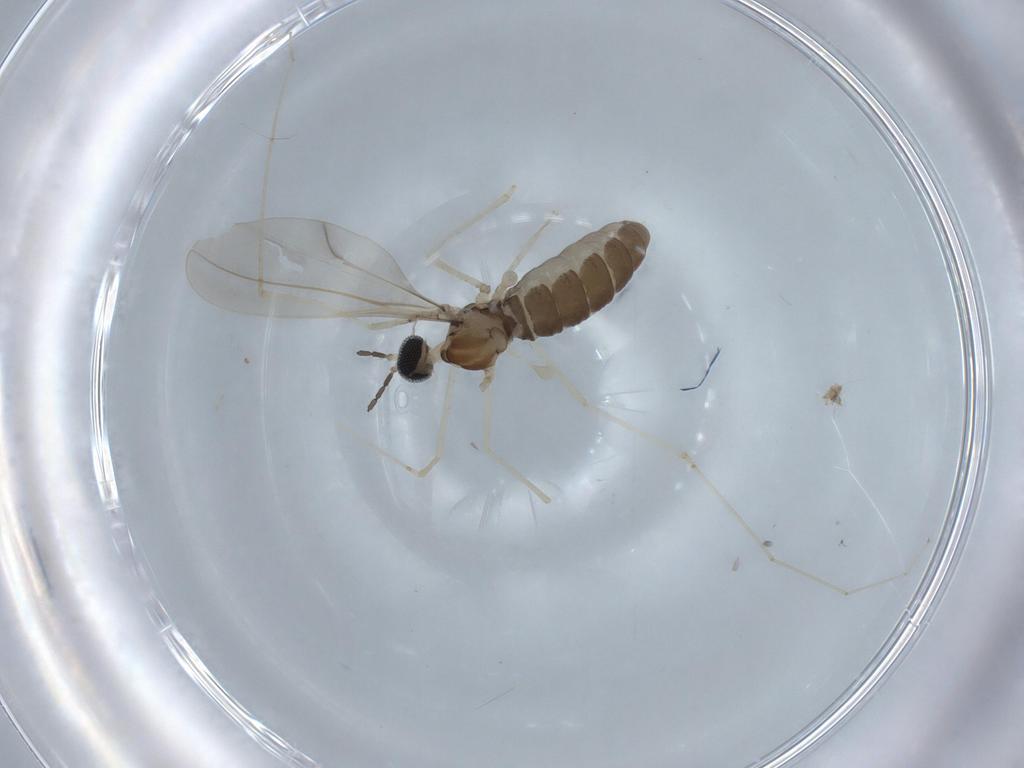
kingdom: Animalia
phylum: Arthropoda
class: Insecta
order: Diptera
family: Cecidomyiidae
